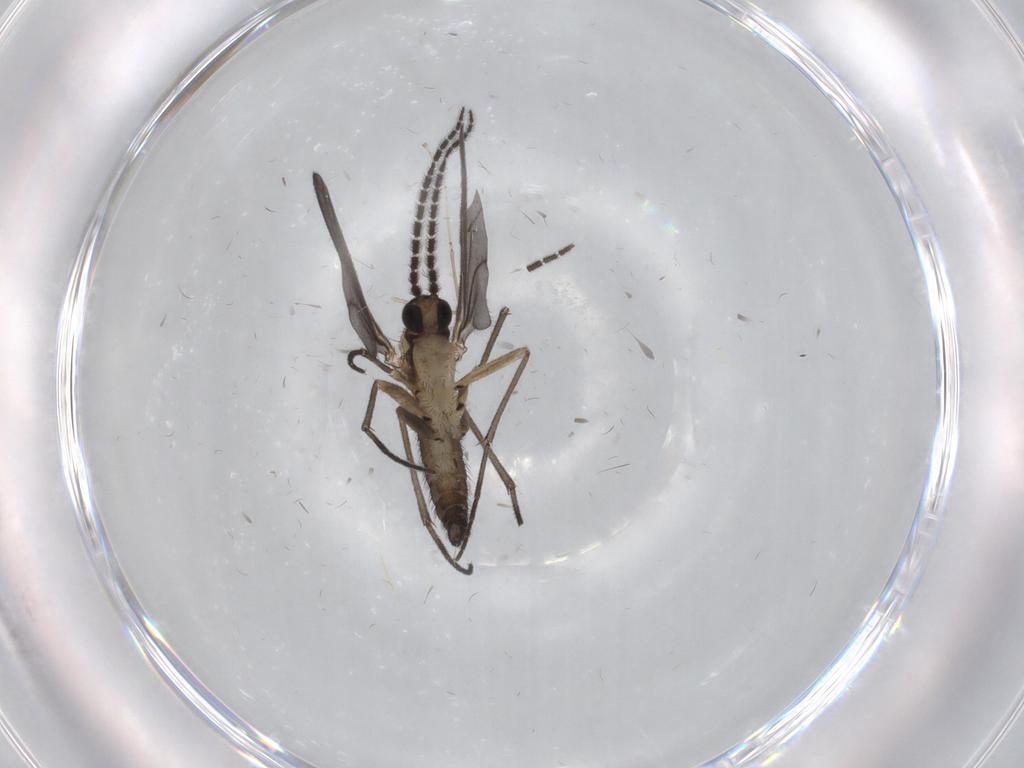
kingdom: Animalia
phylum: Arthropoda
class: Insecta
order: Diptera
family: Sciaridae
